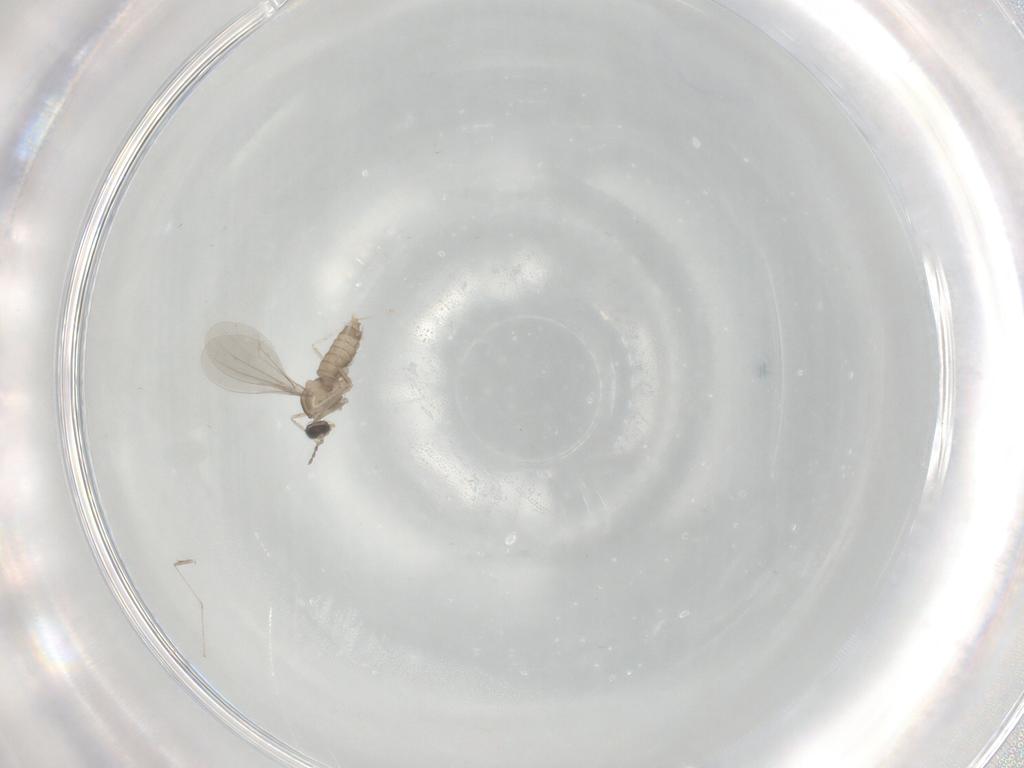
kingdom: Animalia
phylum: Arthropoda
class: Insecta
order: Diptera
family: Cecidomyiidae
